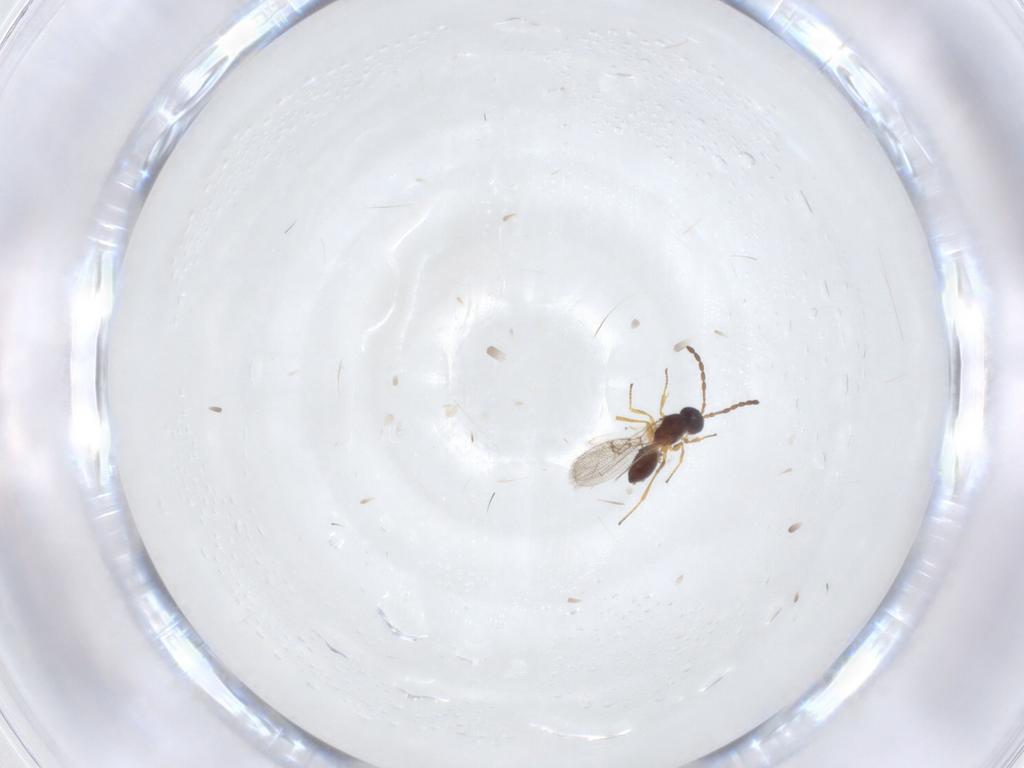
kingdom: Animalia
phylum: Arthropoda
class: Insecta
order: Hymenoptera
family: Figitidae
